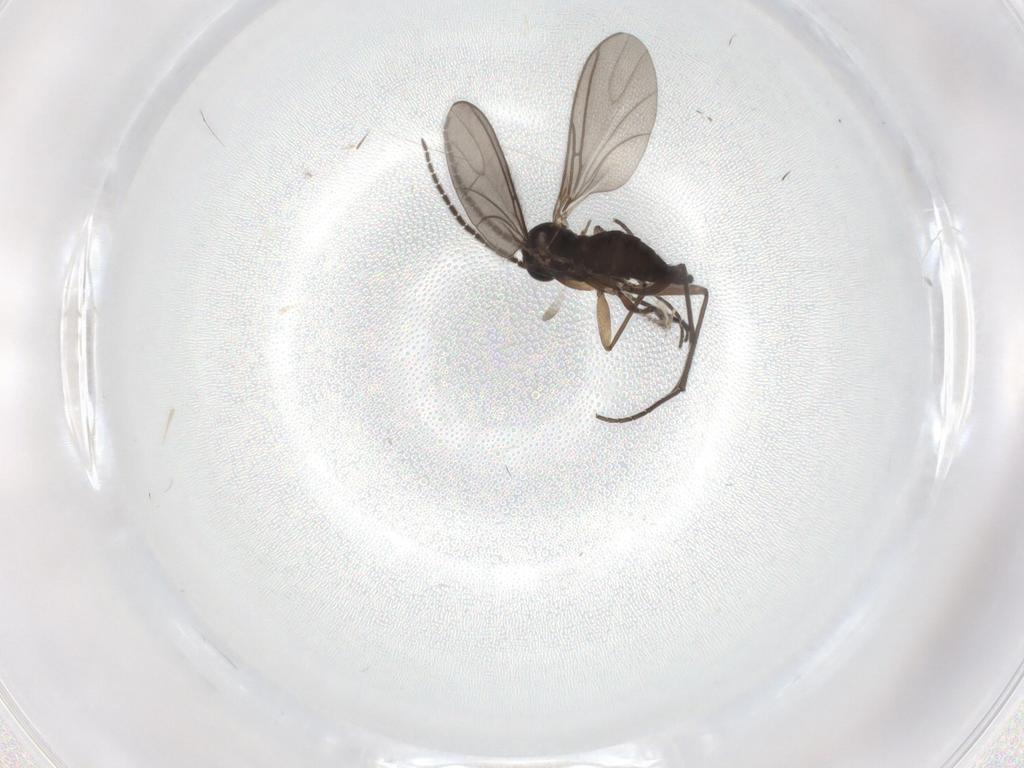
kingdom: Animalia
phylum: Arthropoda
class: Insecta
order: Diptera
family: Sciaridae
